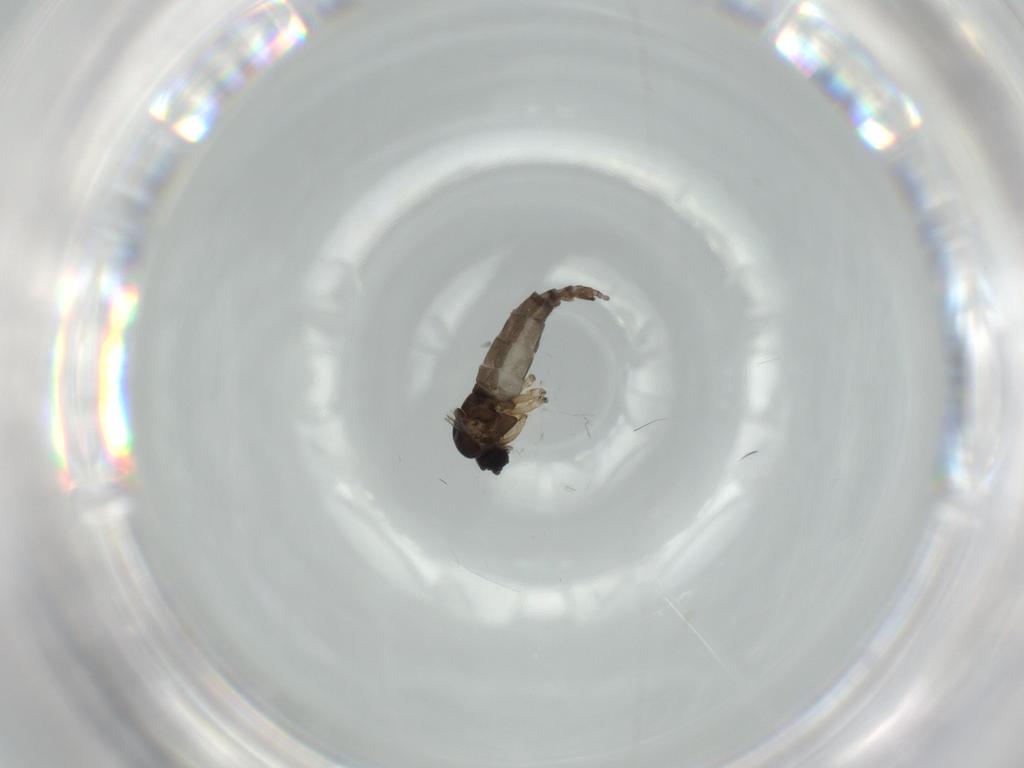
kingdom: Animalia
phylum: Arthropoda
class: Insecta
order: Diptera
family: Sciaridae
